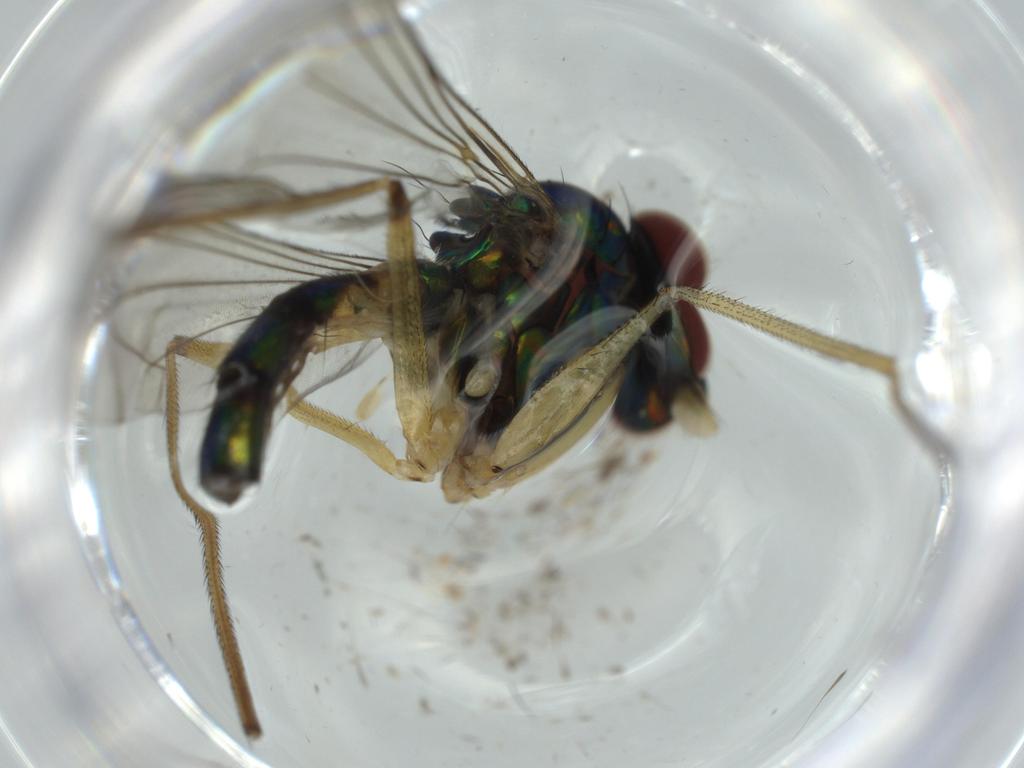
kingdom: Animalia
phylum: Arthropoda
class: Insecta
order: Diptera
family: Dolichopodidae
